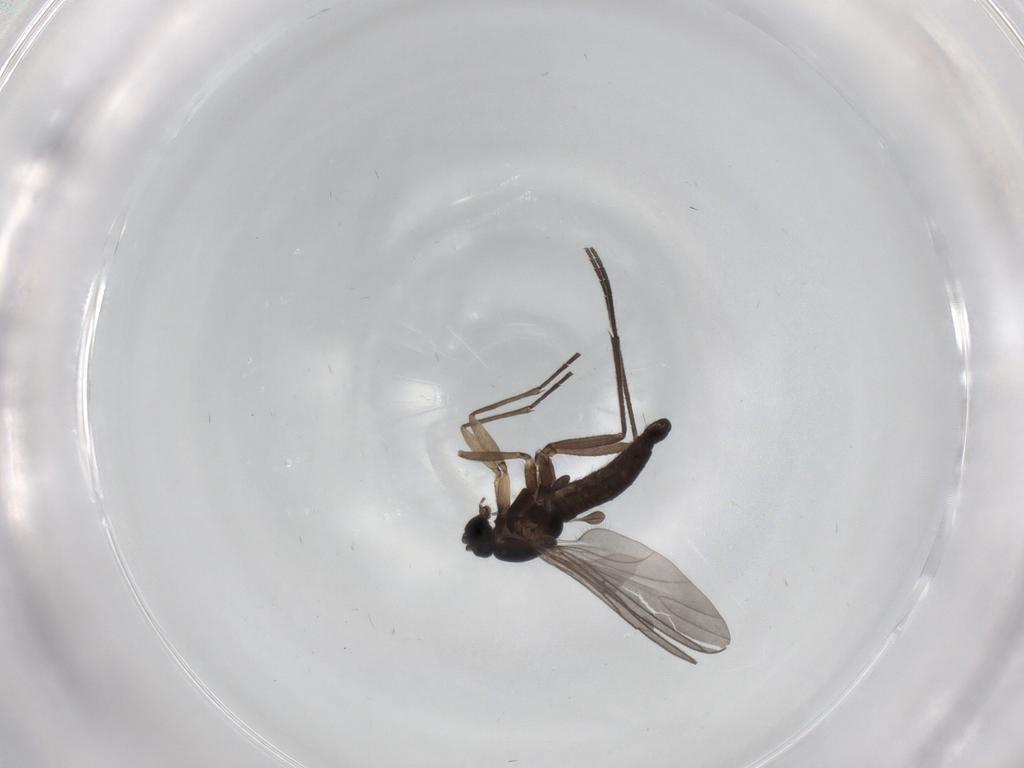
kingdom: Animalia
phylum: Arthropoda
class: Insecta
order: Diptera
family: Sciaridae
